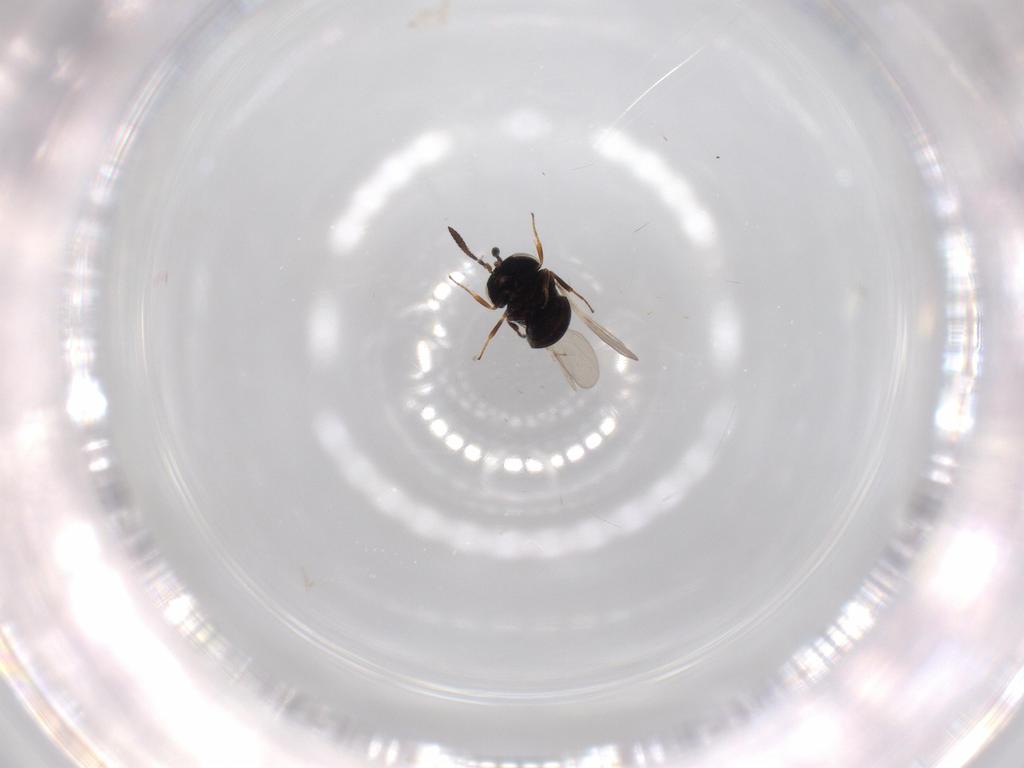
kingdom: Animalia
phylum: Arthropoda
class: Insecta
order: Hymenoptera
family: Scelionidae
